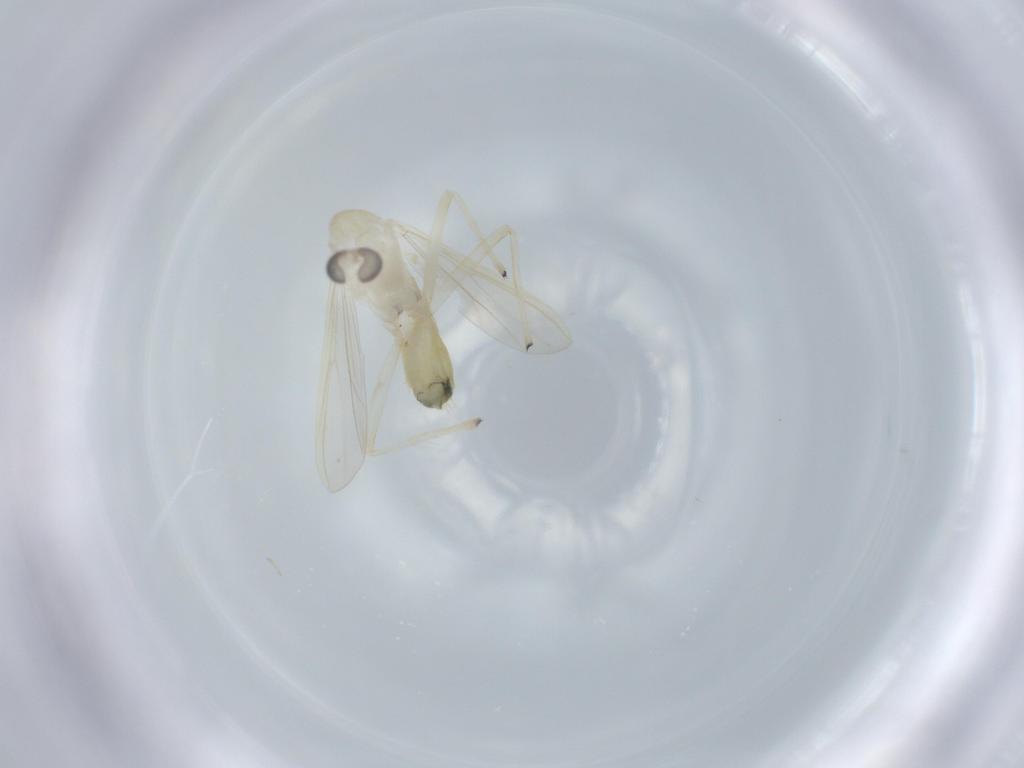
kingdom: Animalia
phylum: Arthropoda
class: Insecta
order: Diptera
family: Chironomidae
